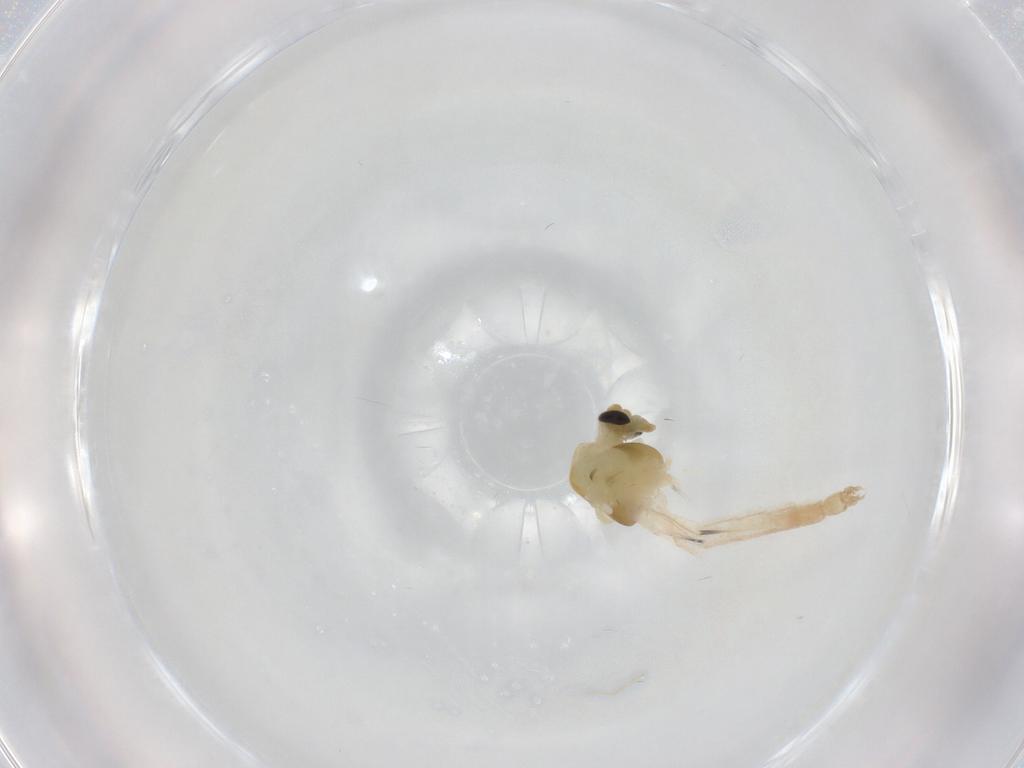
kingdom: Animalia
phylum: Arthropoda
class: Insecta
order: Diptera
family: Chironomidae
